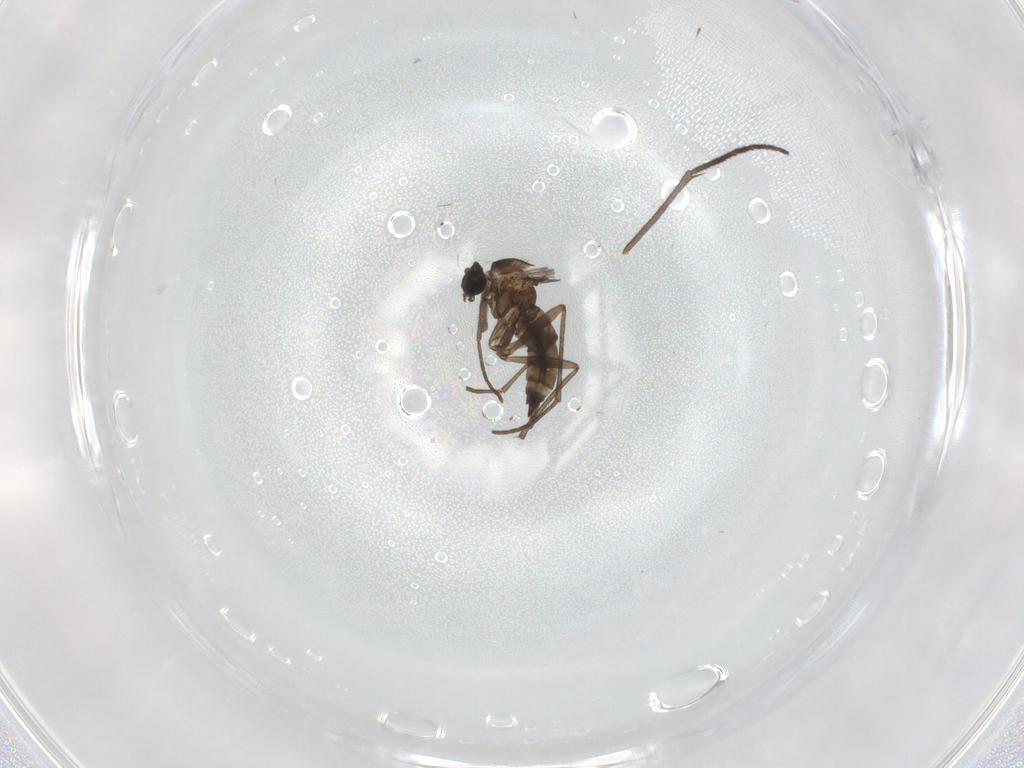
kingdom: Animalia
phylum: Arthropoda
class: Insecta
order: Diptera
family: Sciaridae
